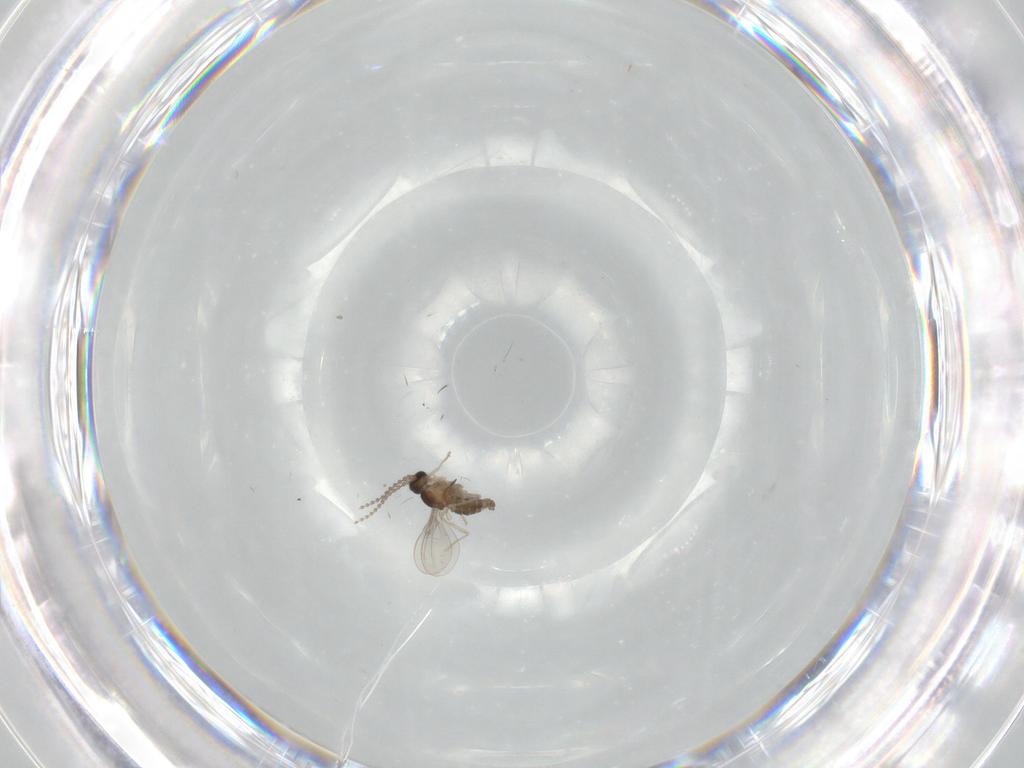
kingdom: Animalia
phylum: Arthropoda
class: Insecta
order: Diptera
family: Cecidomyiidae
